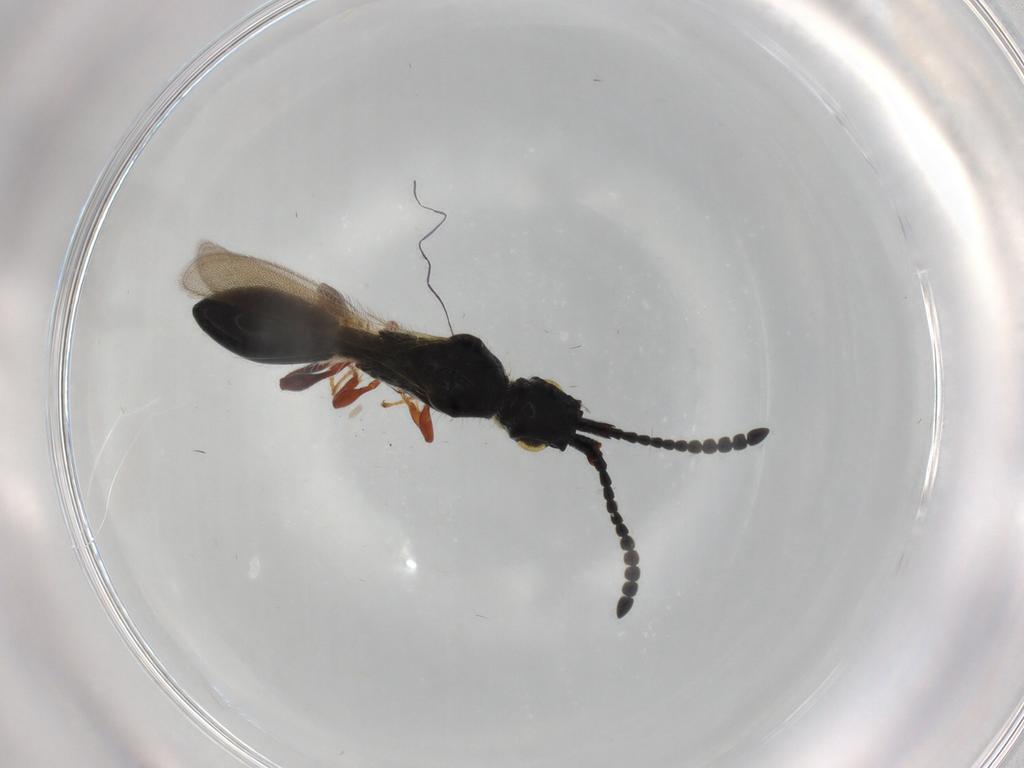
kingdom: Animalia
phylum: Arthropoda
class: Insecta
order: Hymenoptera
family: Diapriidae
